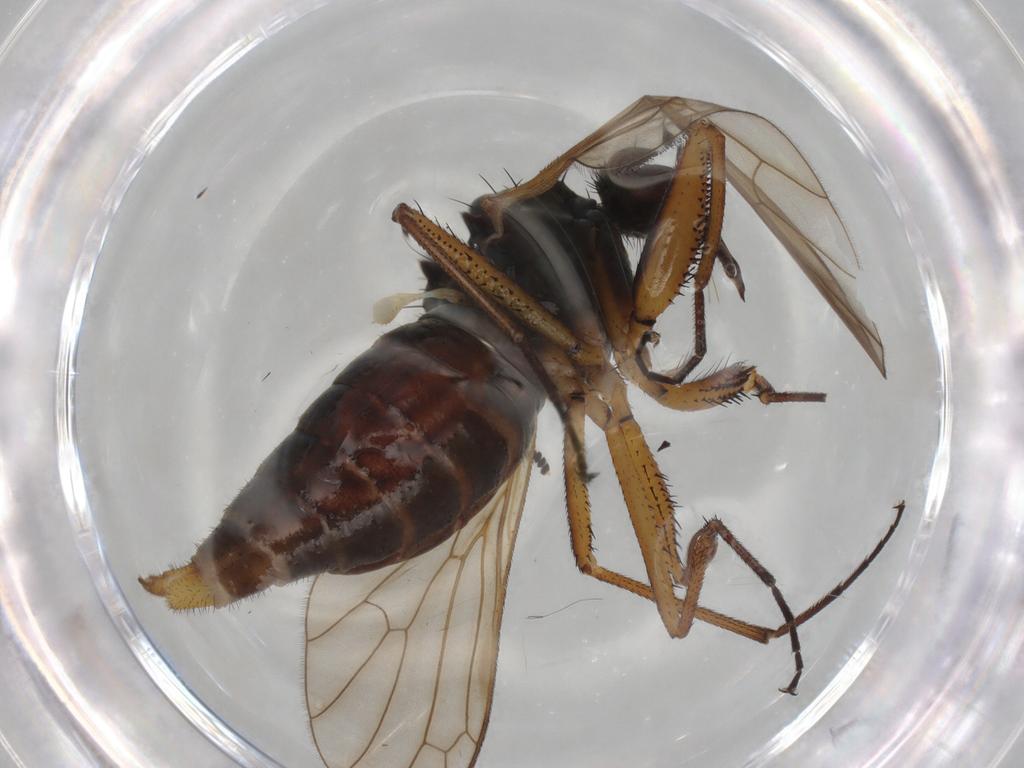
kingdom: Animalia
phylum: Arthropoda
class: Insecta
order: Diptera
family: Empididae
